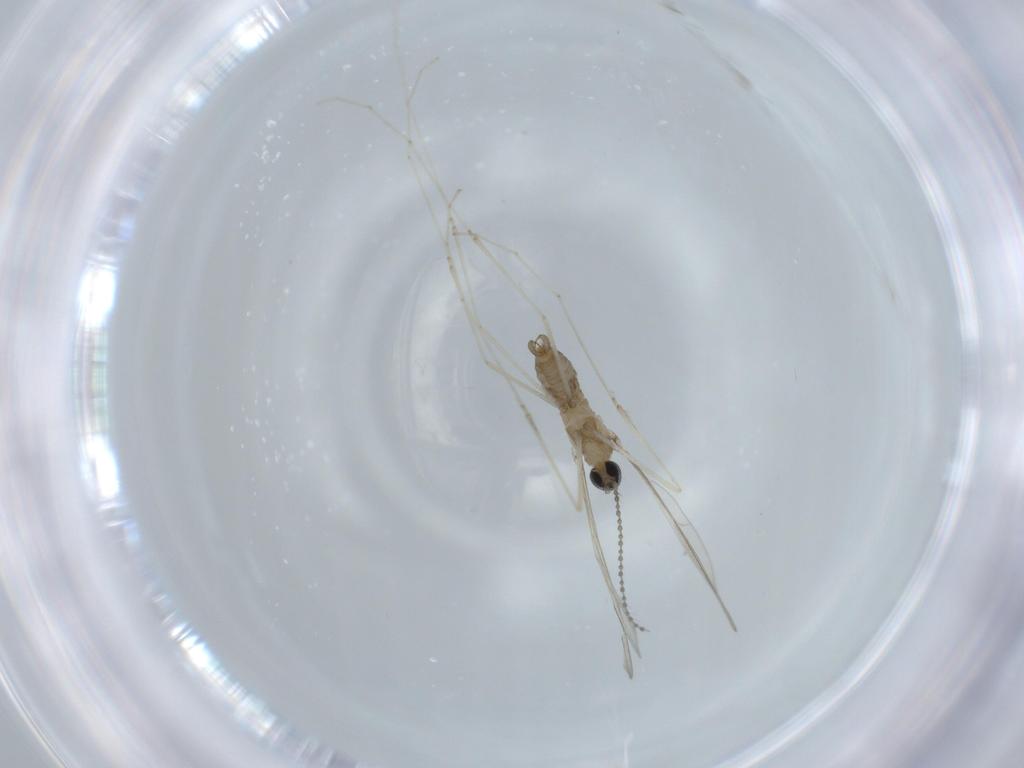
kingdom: Animalia
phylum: Arthropoda
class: Insecta
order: Diptera
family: Cecidomyiidae
